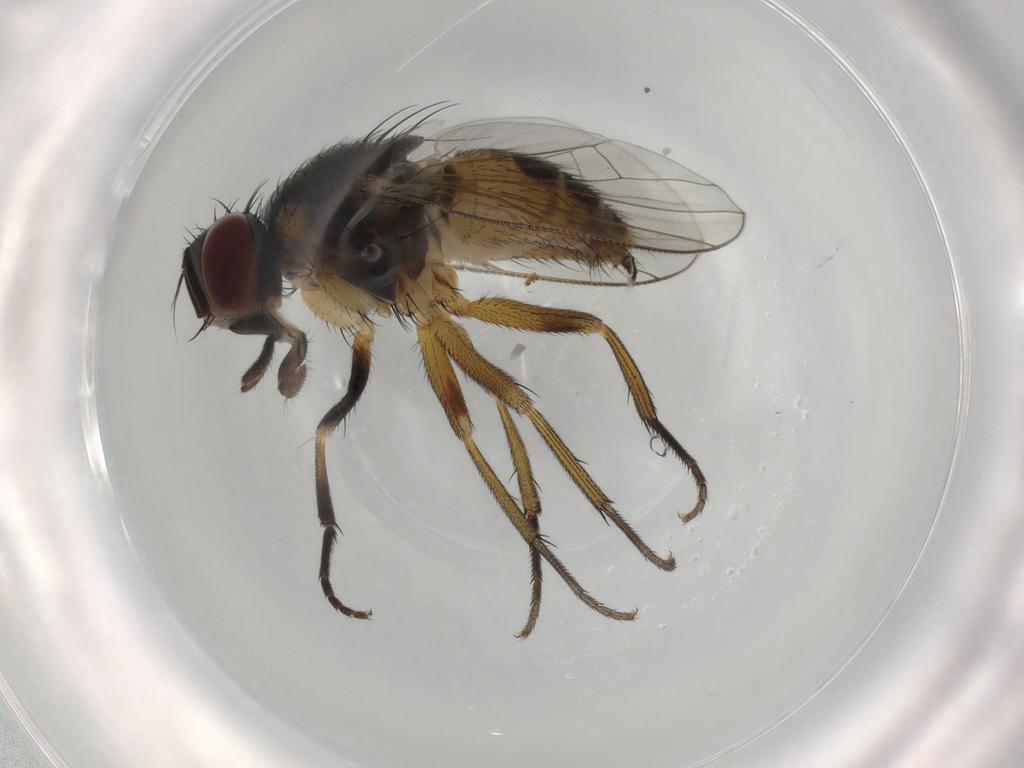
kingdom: Animalia
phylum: Arthropoda
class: Insecta
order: Diptera
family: Muscidae
